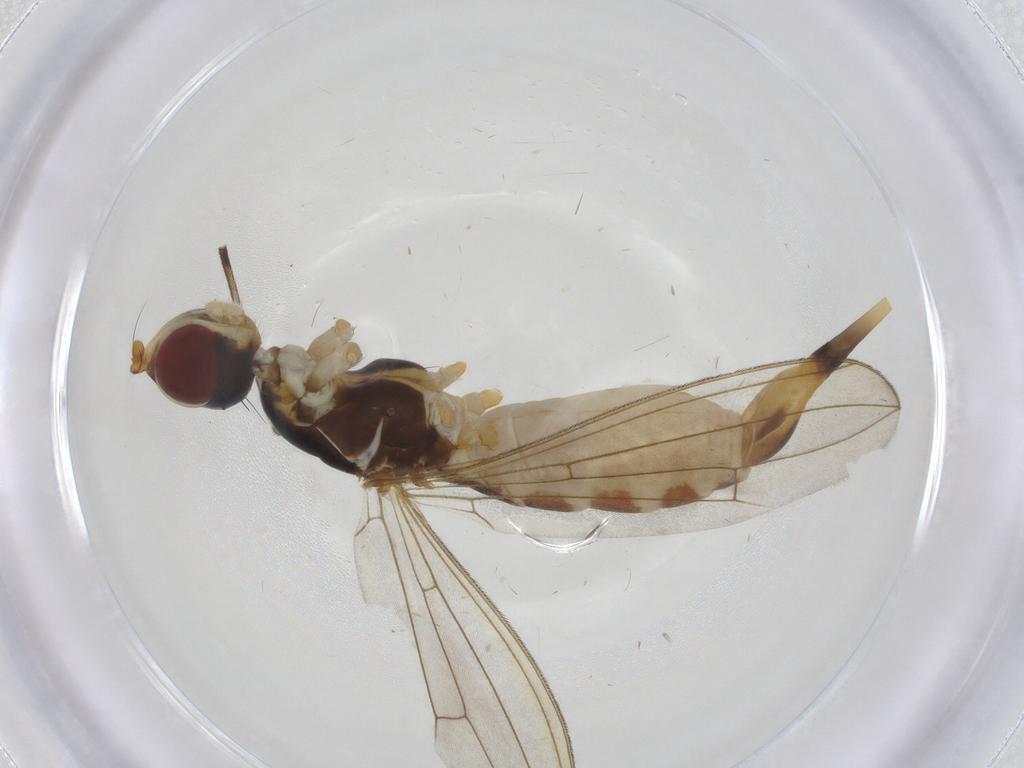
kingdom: Animalia
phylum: Arthropoda
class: Insecta
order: Diptera
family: Micropezidae
